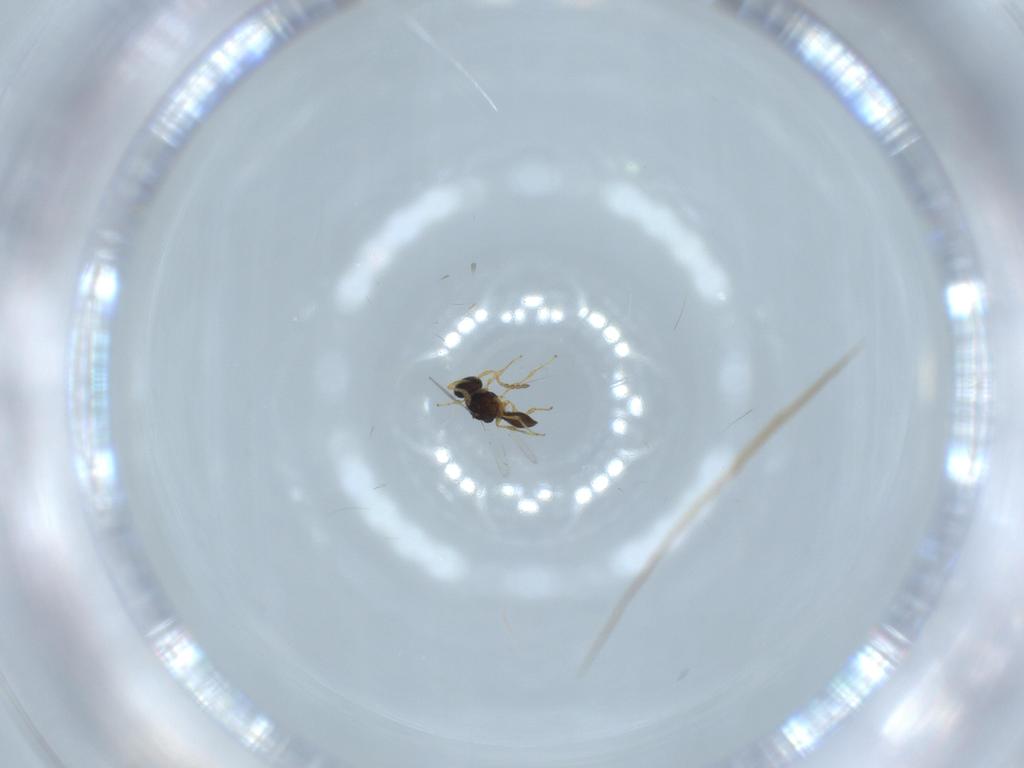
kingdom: Animalia
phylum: Arthropoda
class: Insecta
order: Hymenoptera
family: Platygastridae
